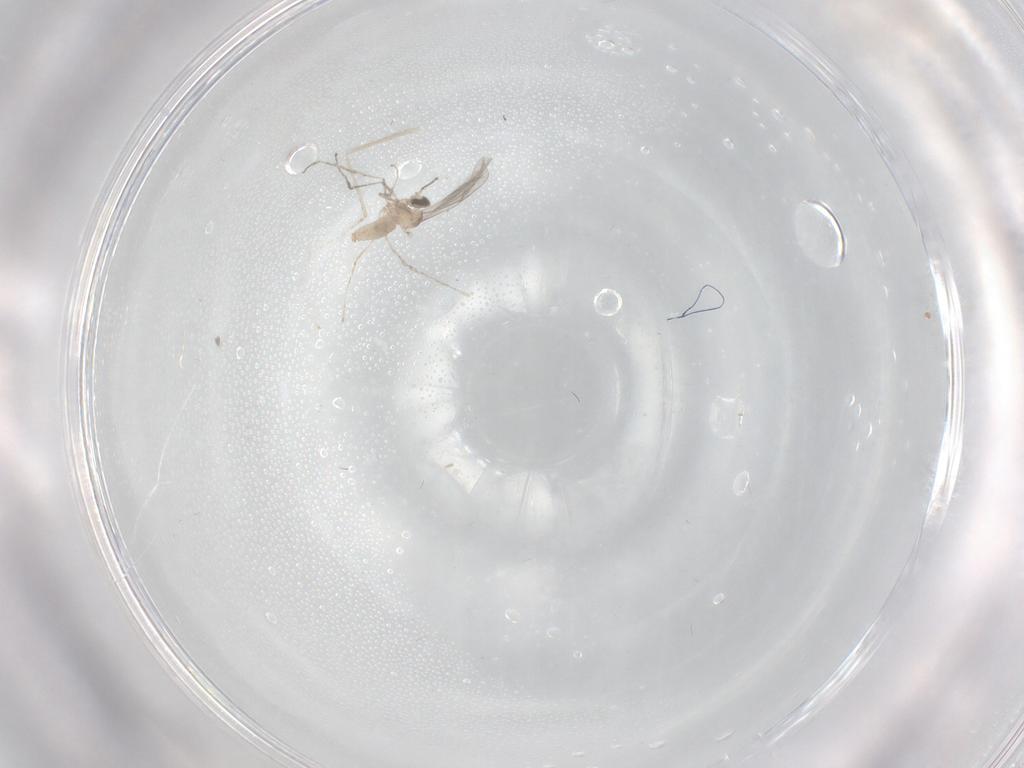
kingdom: Animalia
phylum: Arthropoda
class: Insecta
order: Diptera
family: Cecidomyiidae
